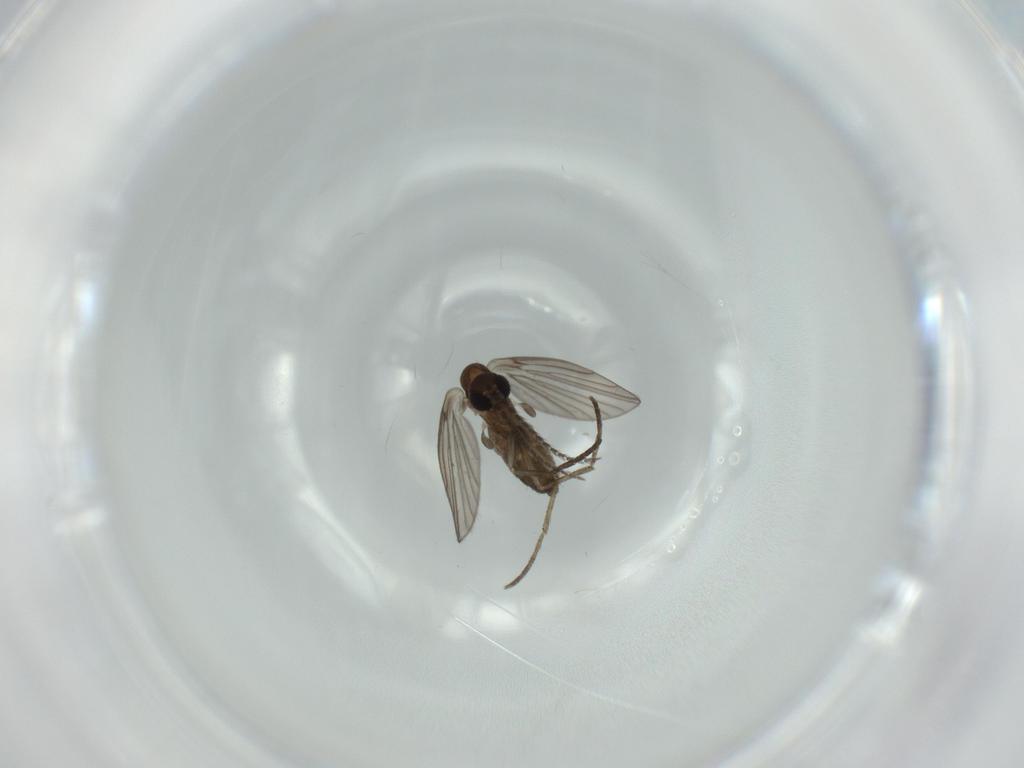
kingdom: Animalia
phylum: Arthropoda
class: Insecta
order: Diptera
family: Psychodidae
